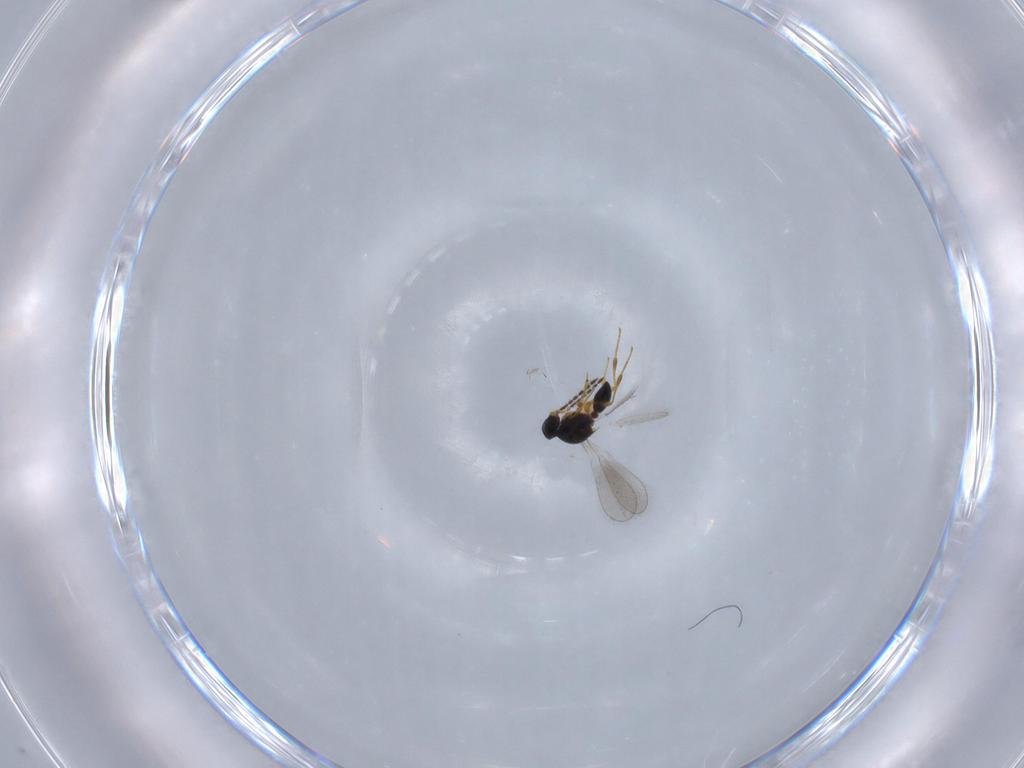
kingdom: Animalia
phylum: Arthropoda
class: Insecta
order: Hymenoptera
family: Platygastridae
